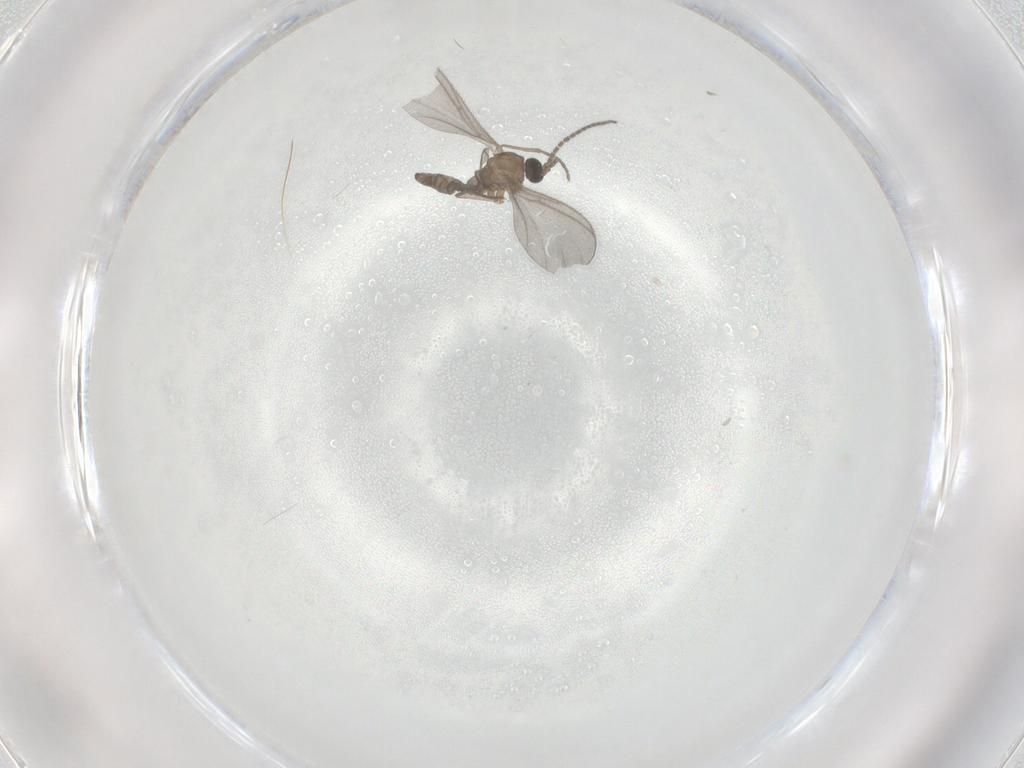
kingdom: Animalia
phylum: Arthropoda
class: Insecta
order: Diptera
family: Sciaridae
